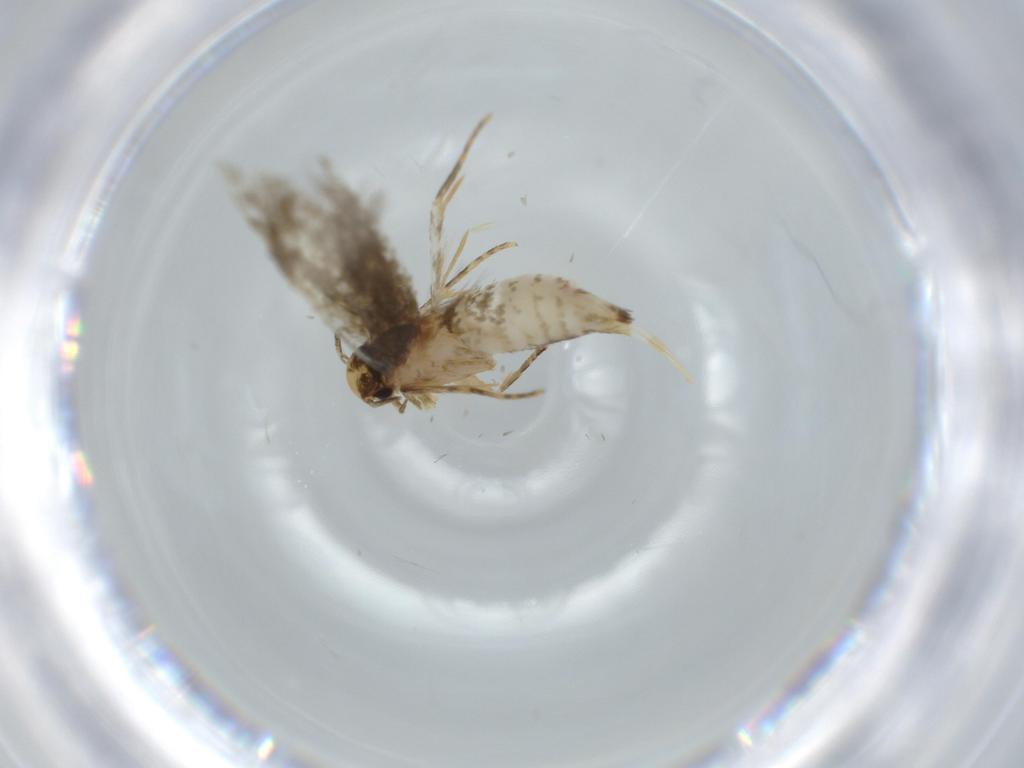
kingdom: Animalia
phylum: Arthropoda
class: Insecta
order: Lepidoptera
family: Tineidae
